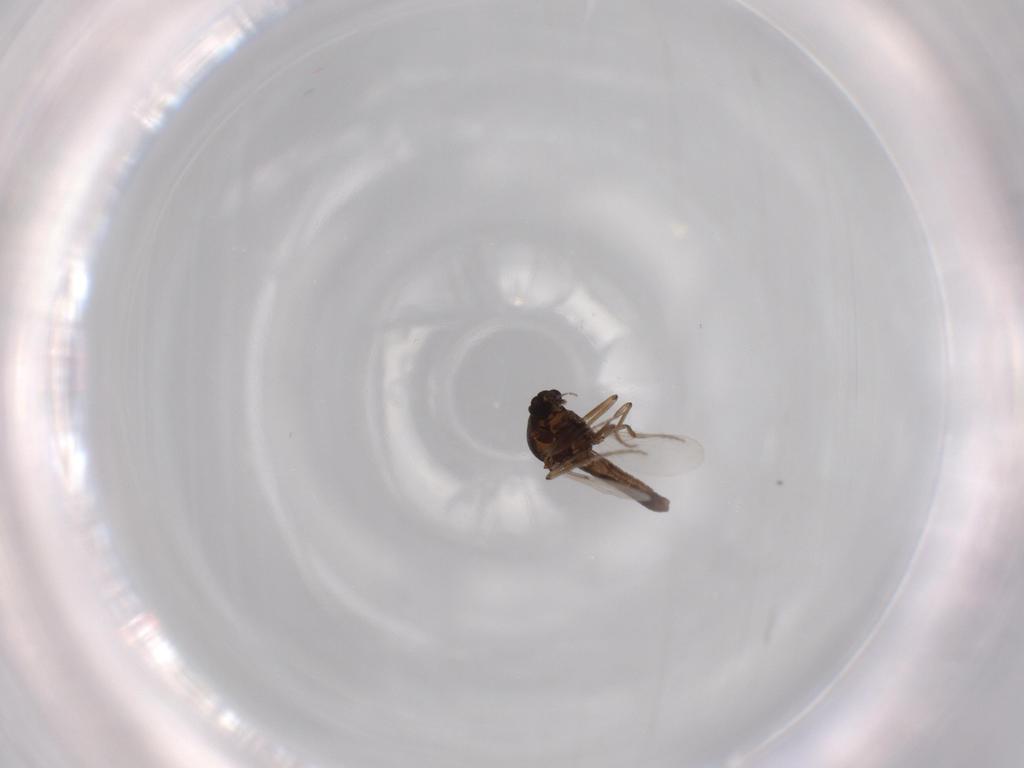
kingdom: Animalia
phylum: Arthropoda
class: Insecta
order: Diptera
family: Ceratopogonidae
